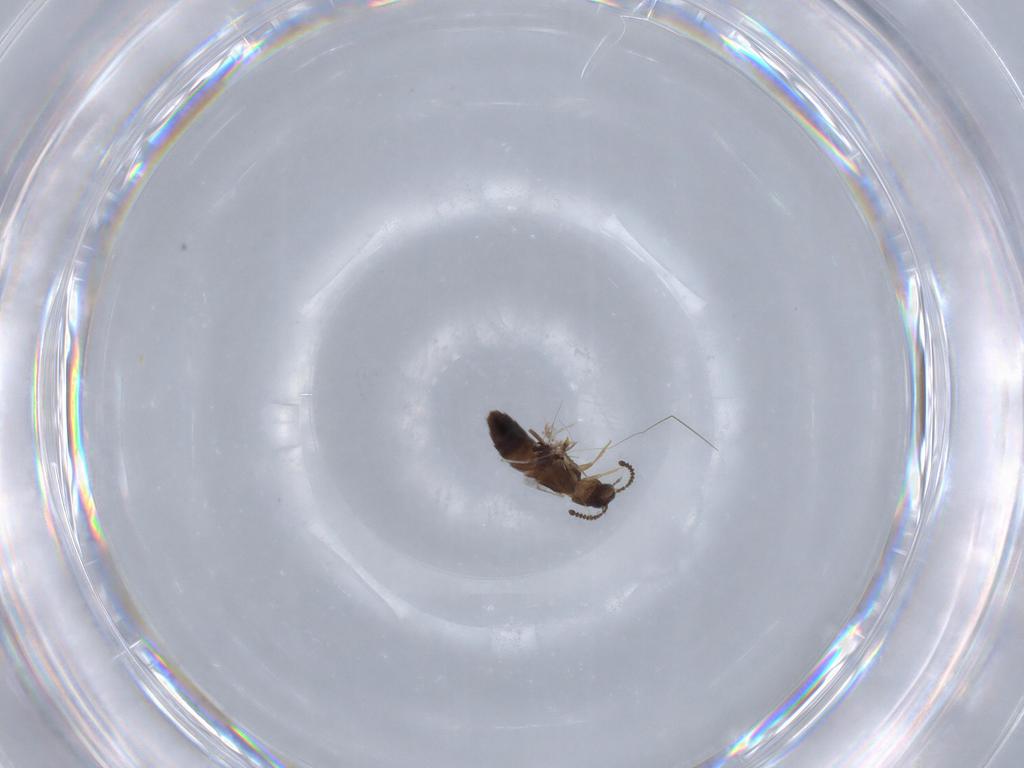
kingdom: Animalia
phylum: Arthropoda
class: Insecta
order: Coleoptera
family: Staphylinidae
